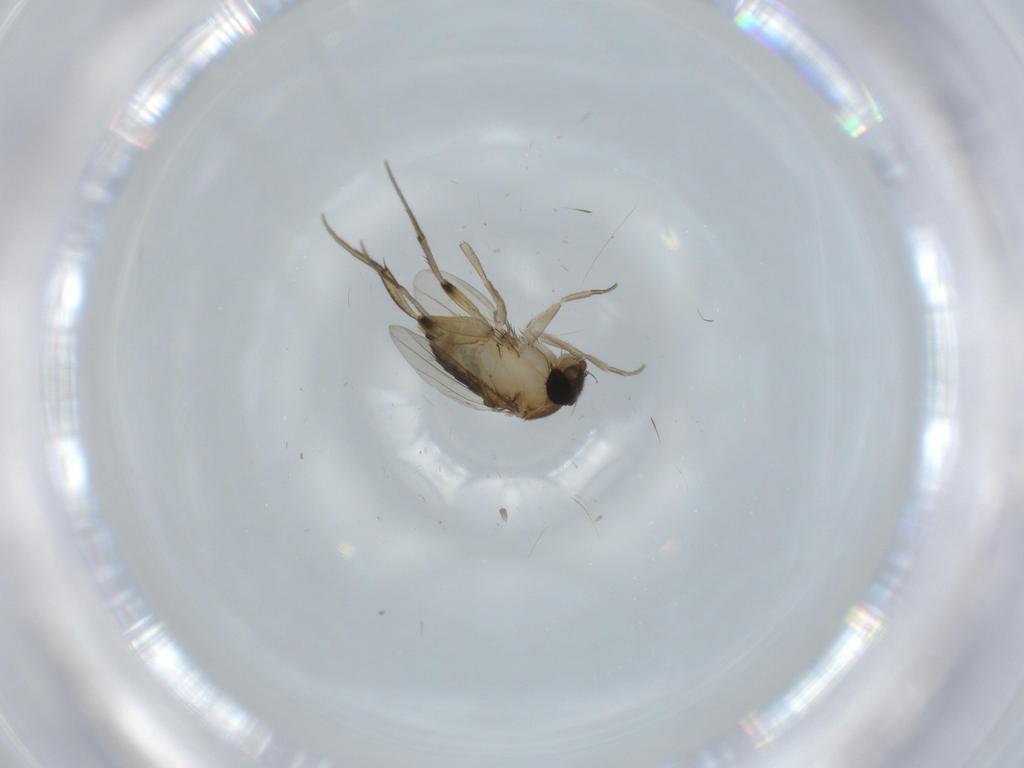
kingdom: Animalia
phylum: Arthropoda
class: Insecta
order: Diptera
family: Phoridae
